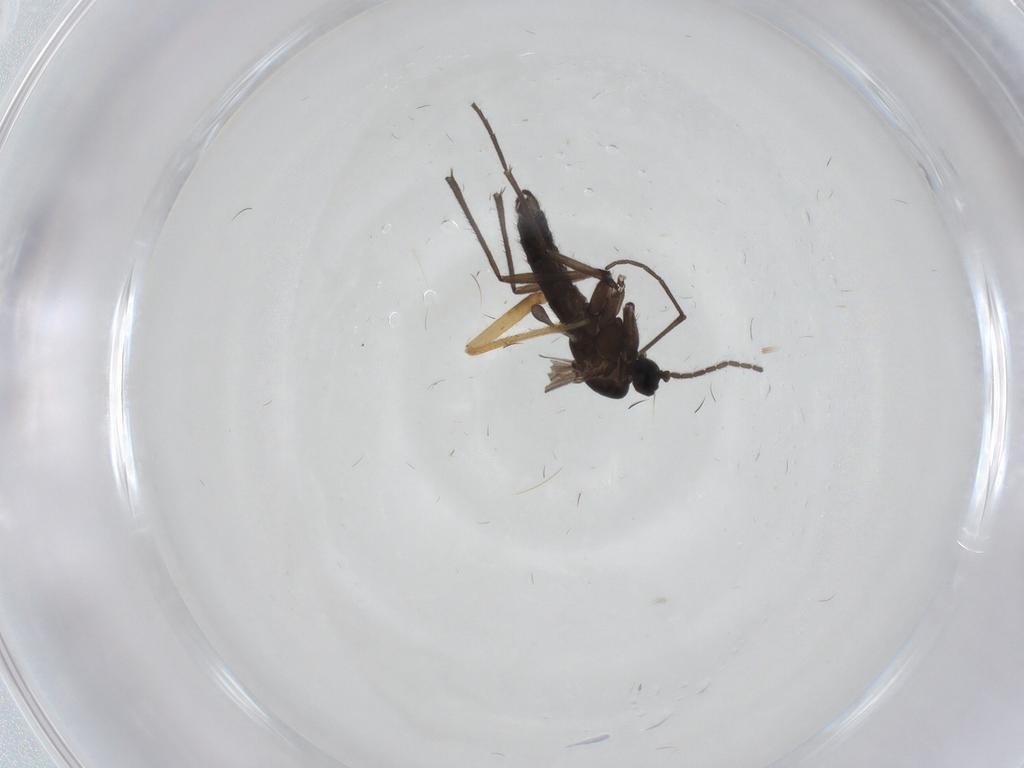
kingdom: Animalia
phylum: Arthropoda
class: Insecta
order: Diptera
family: Sciaridae
